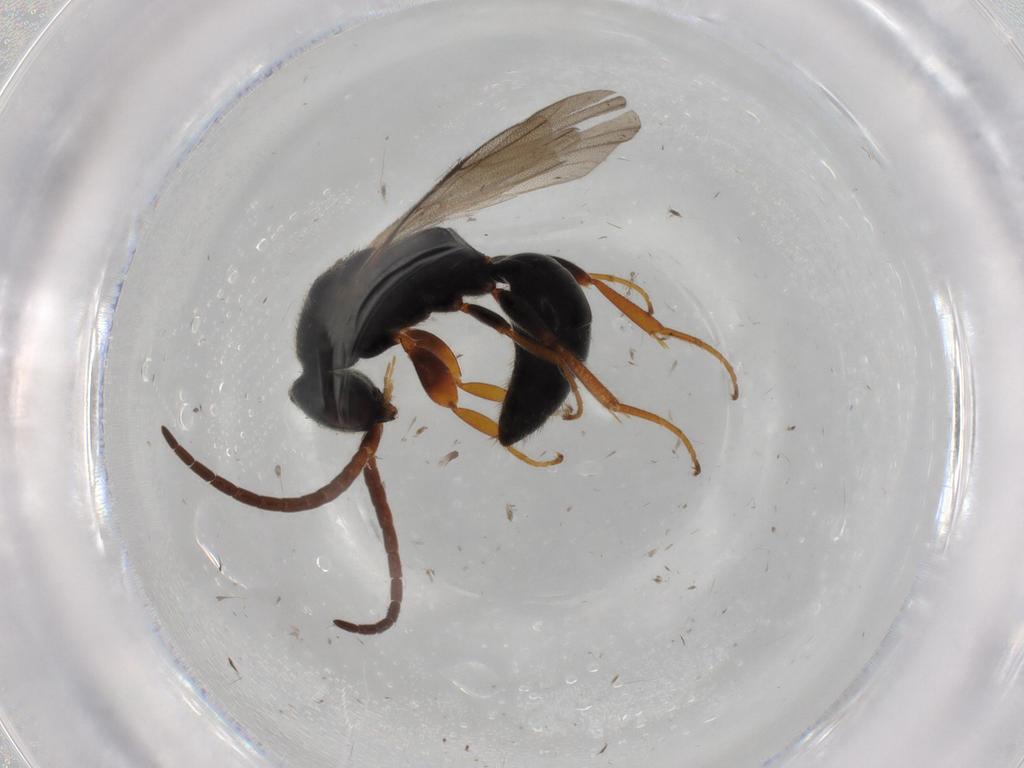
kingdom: Animalia
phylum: Arthropoda
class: Insecta
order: Hymenoptera
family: Bethylidae
